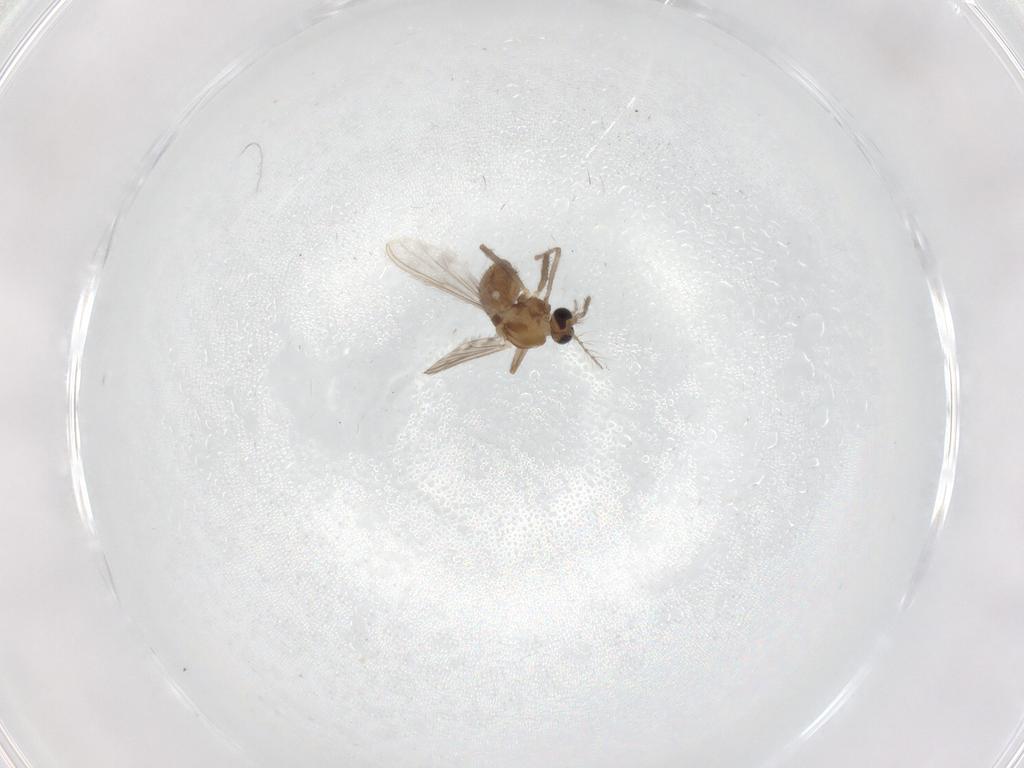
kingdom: Animalia
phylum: Arthropoda
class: Insecta
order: Diptera
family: Chironomidae
